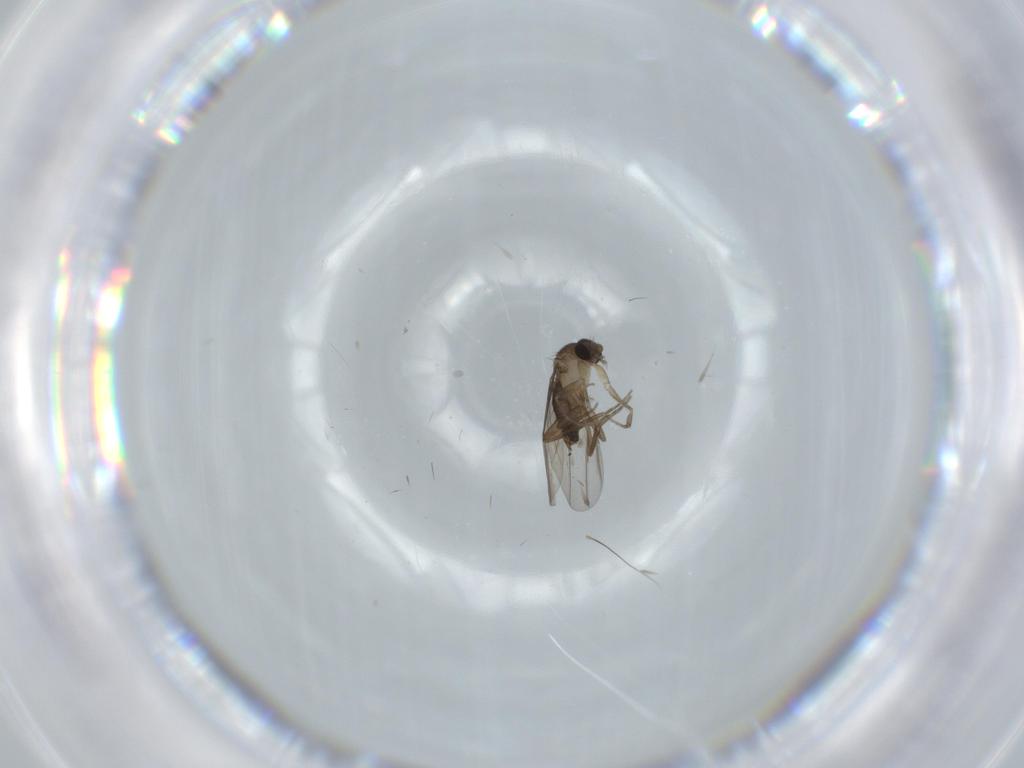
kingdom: Animalia
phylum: Arthropoda
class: Insecta
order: Diptera
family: Phoridae
